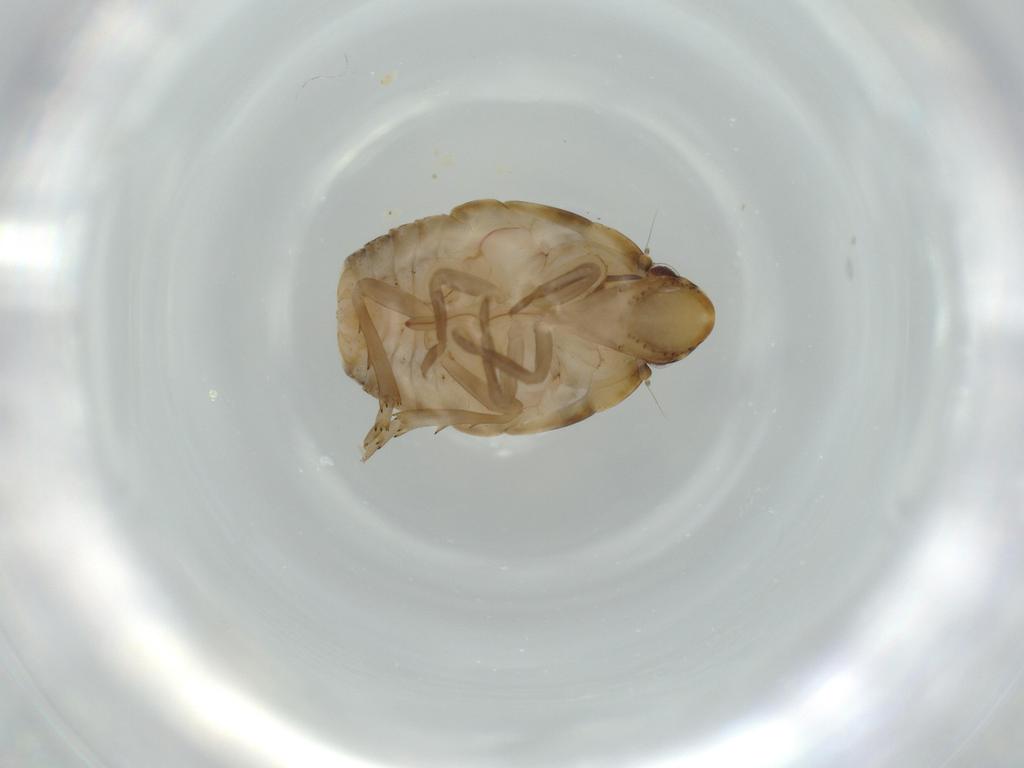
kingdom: Animalia
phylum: Arthropoda
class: Insecta
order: Hemiptera
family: Flatidae
